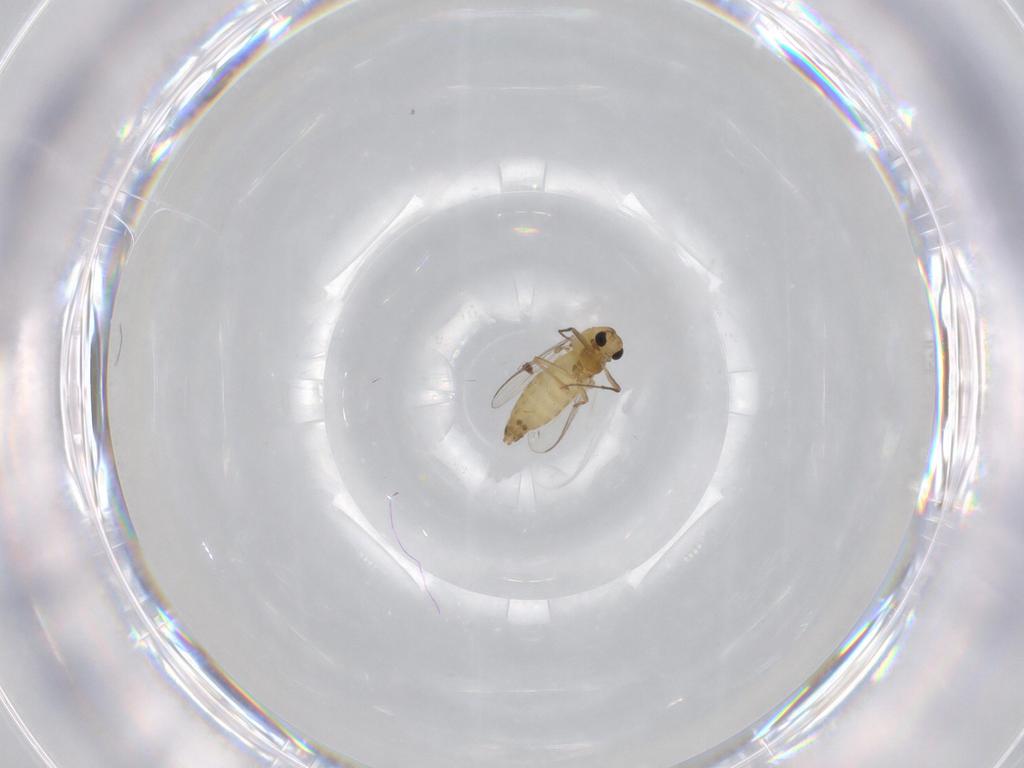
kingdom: Animalia
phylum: Arthropoda
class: Insecta
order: Diptera
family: Chironomidae
